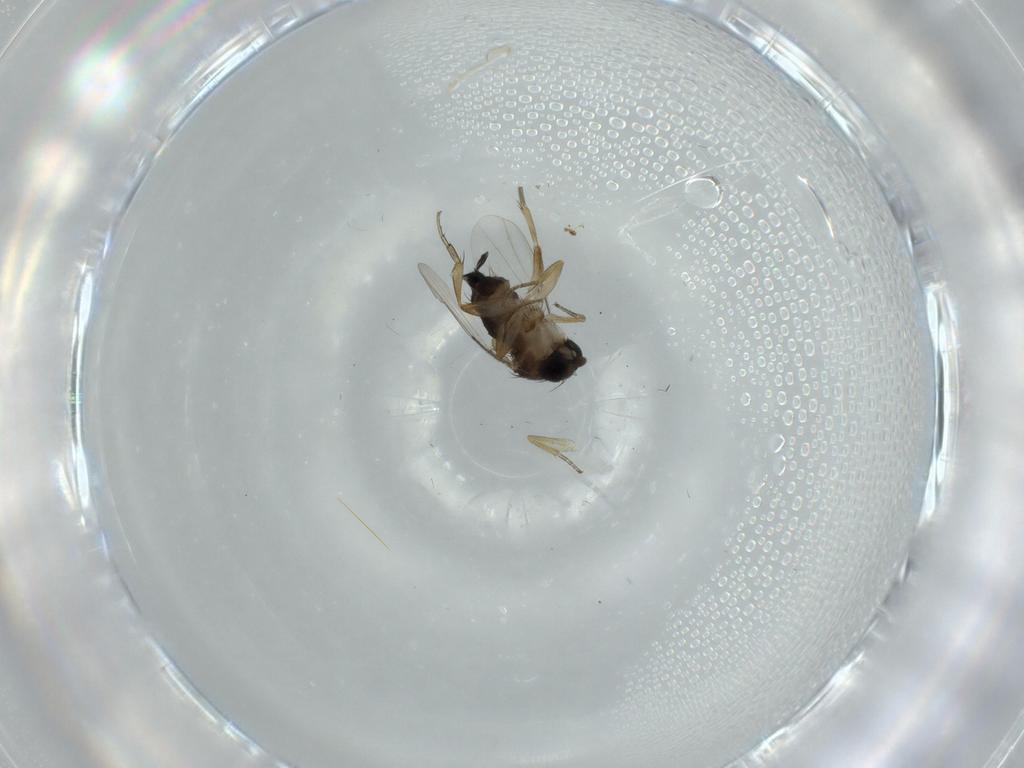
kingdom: Animalia
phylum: Arthropoda
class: Insecta
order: Diptera
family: Phoridae
